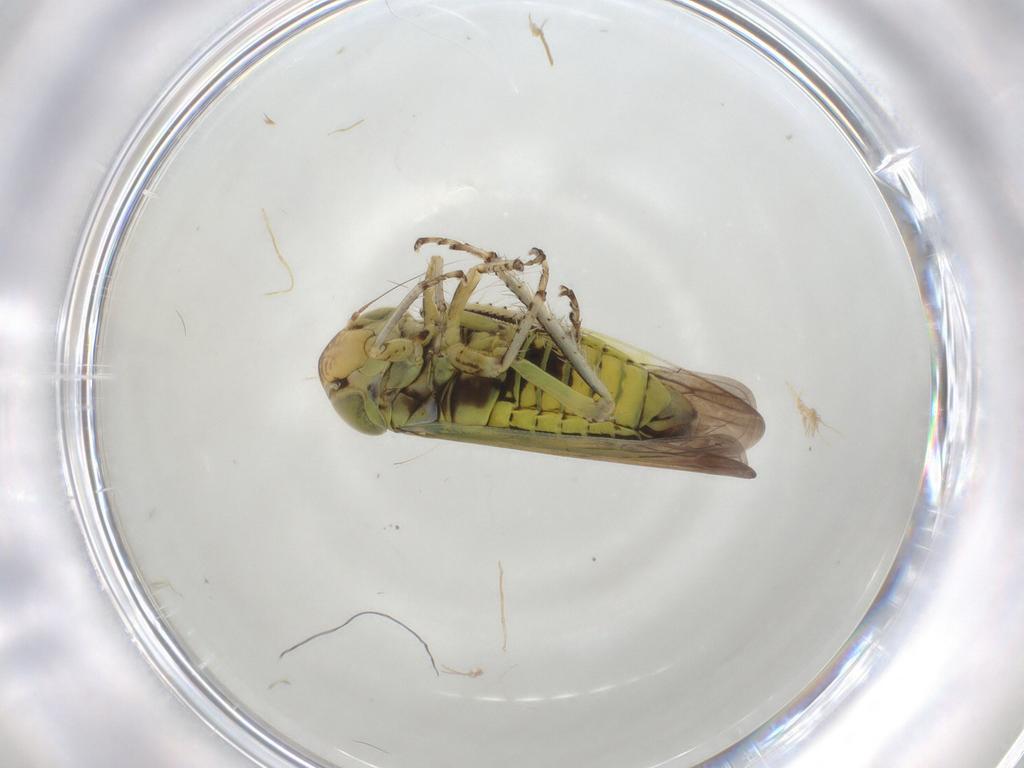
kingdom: Animalia
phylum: Arthropoda
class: Insecta
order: Hemiptera
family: Cicadellidae
